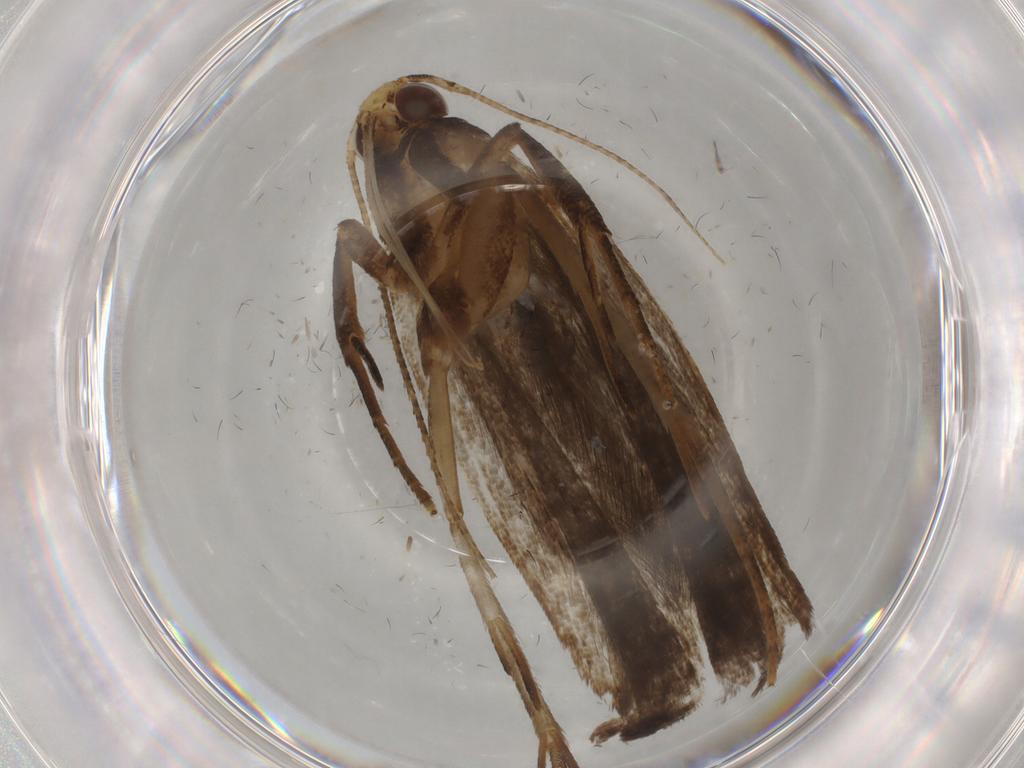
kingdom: Animalia
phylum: Arthropoda
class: Insecta
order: Lepidoptera
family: Gelechiidae
